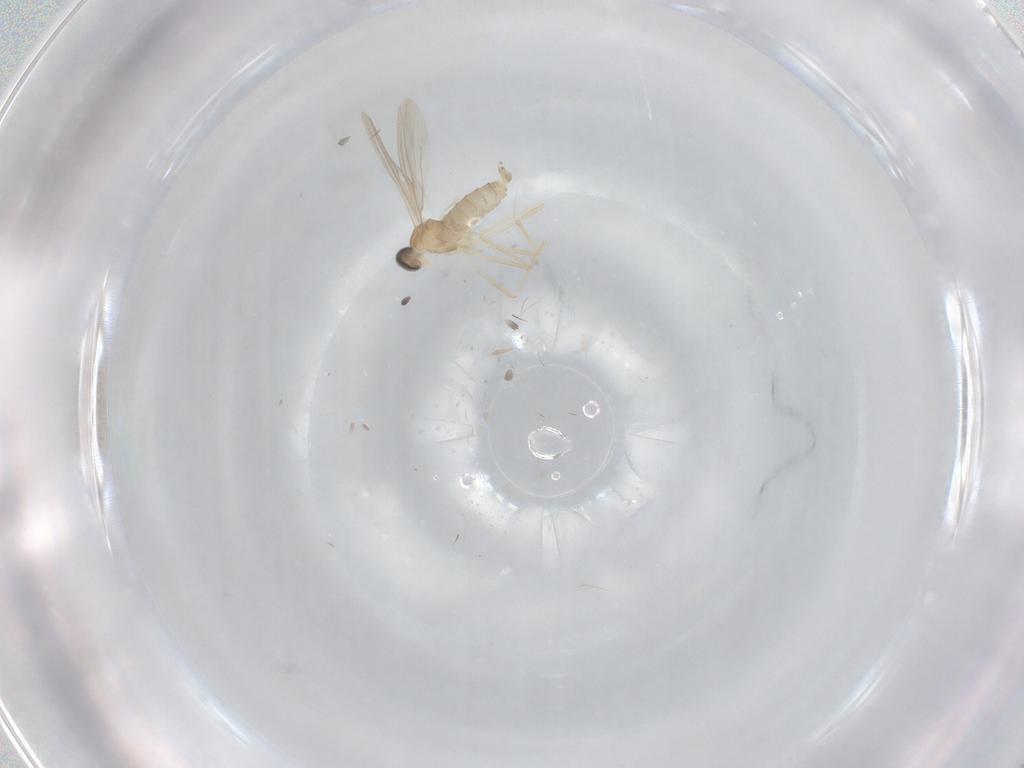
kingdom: Animalia
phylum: Arthropoda
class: Insecta
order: Diptera
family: Cecidomyiidae
